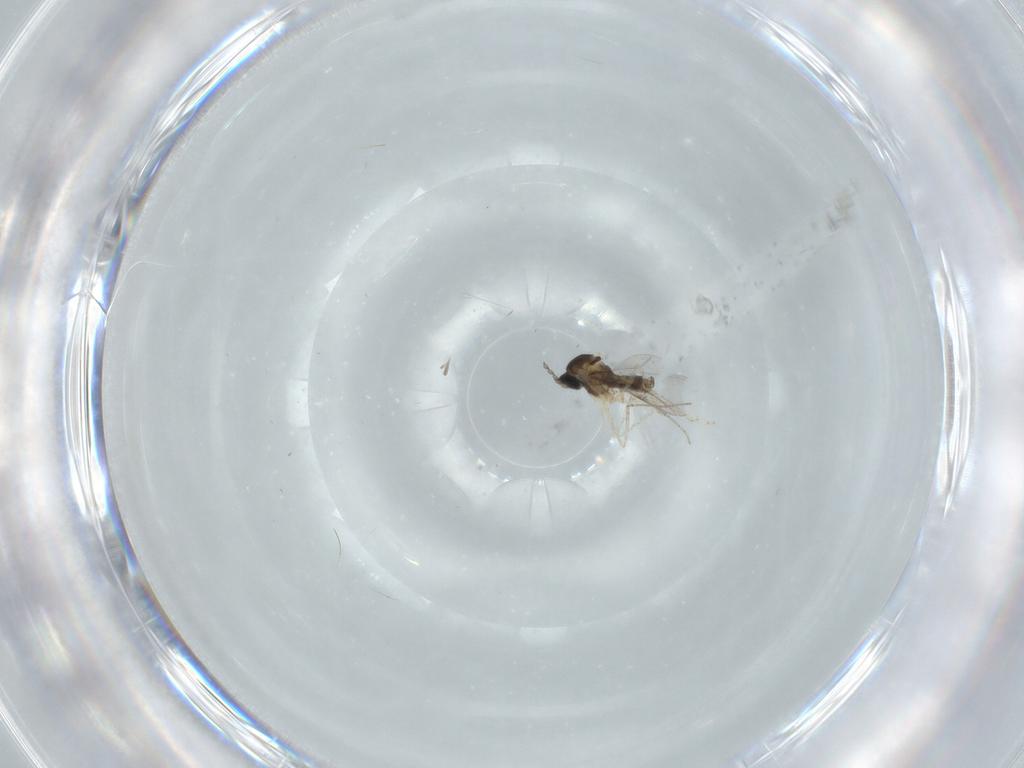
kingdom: Animalia
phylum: Arthropoda
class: Insecta
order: Diptera
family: Cecidomyiidae
